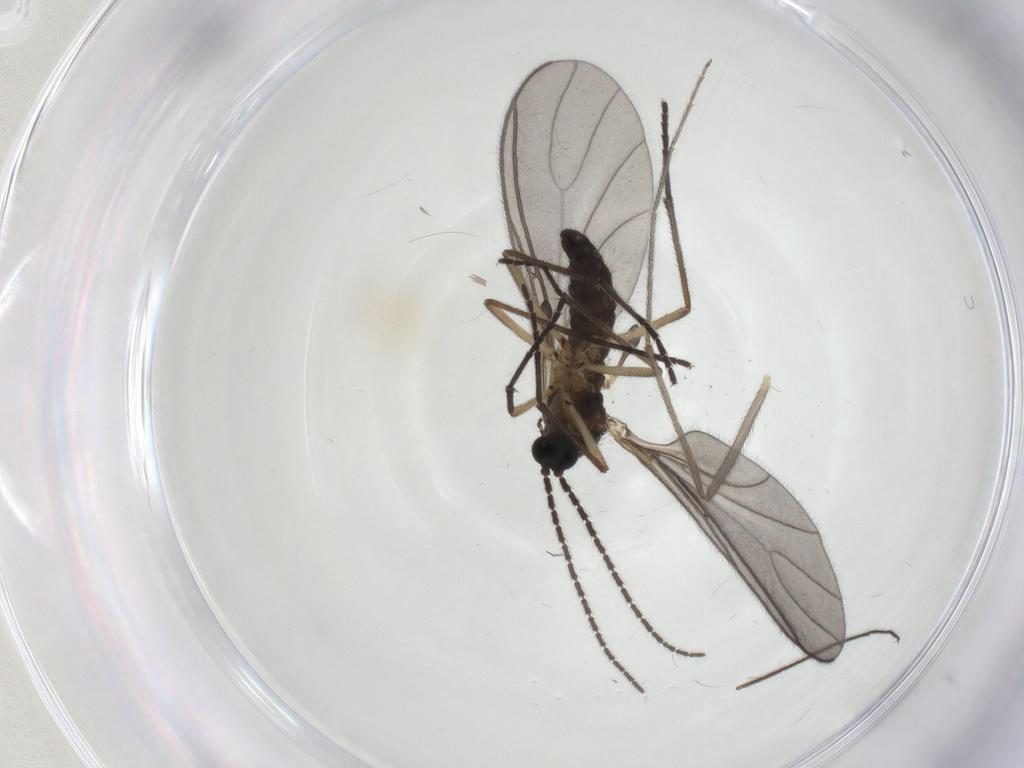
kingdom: Animalia
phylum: Arthropoda
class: Insecta
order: Diptera
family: Sciaridae
